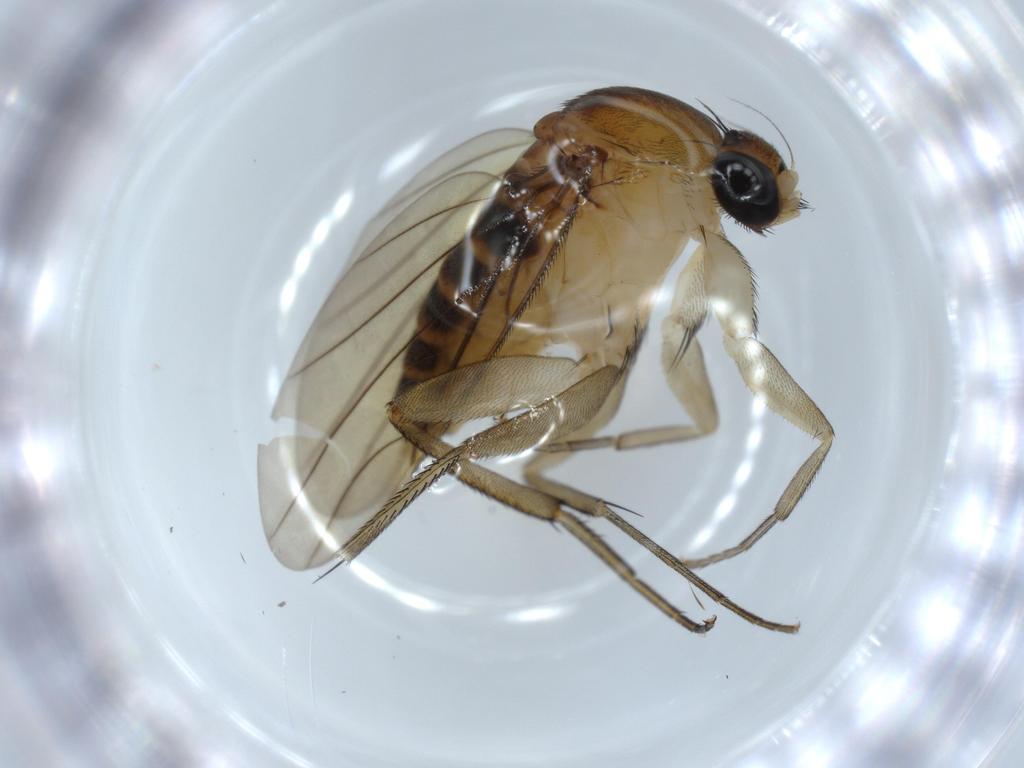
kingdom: Animalia
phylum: Arthropoda
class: Insecta
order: Diptera
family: Phoridae
